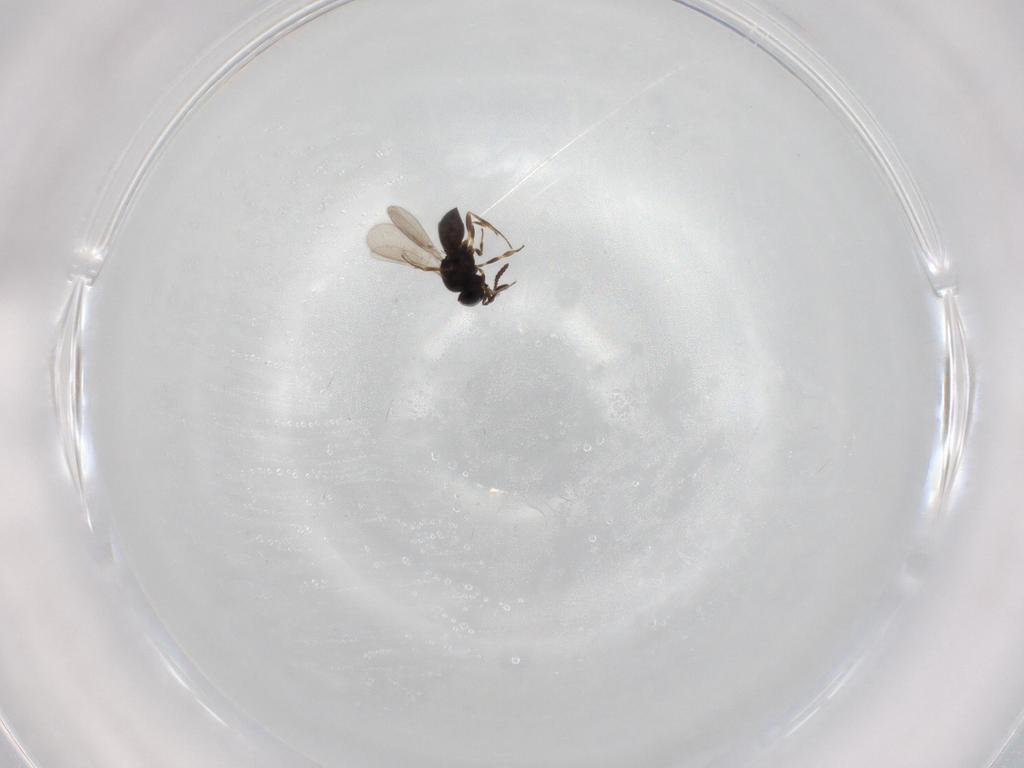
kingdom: Animalia
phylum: Arthropoda
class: Insecta
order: Hymenoptera
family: Scelionidae
